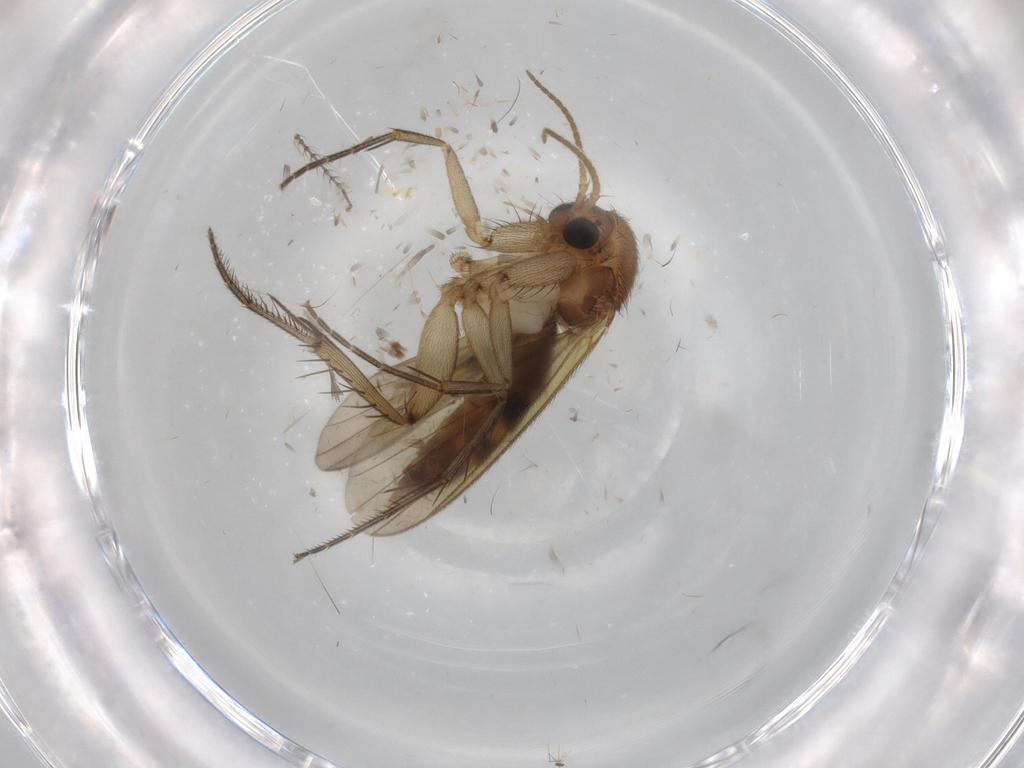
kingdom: Animalia
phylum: Arthropoda
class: Insecta
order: Diptera
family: Mycetophilidae
